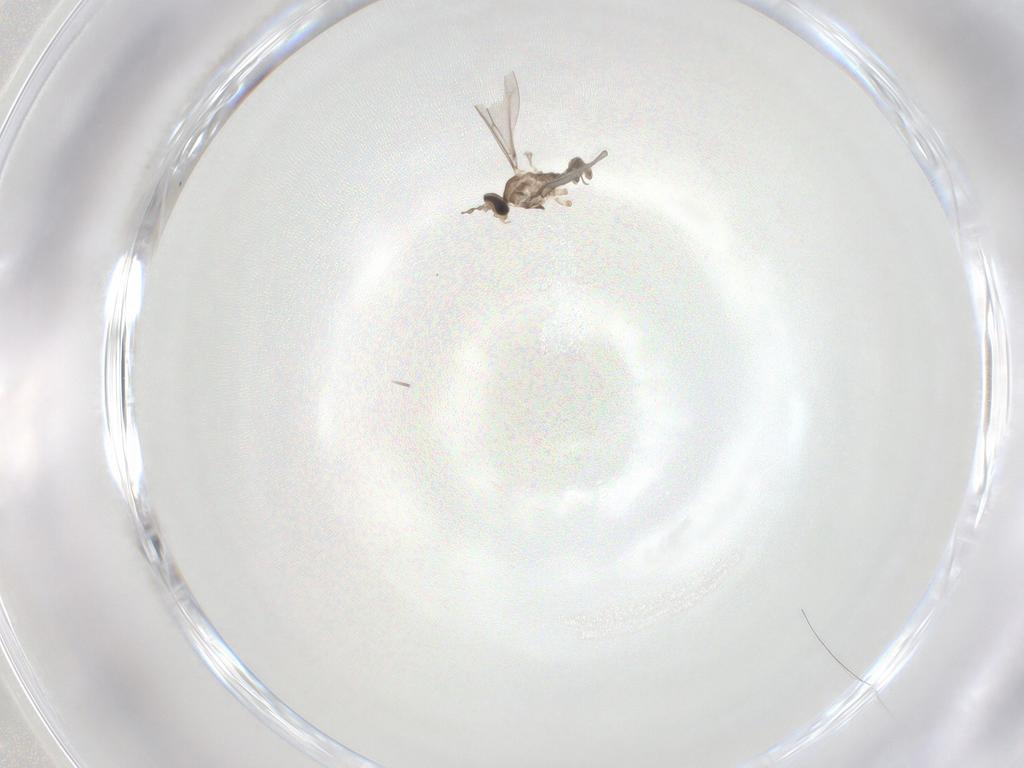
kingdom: Animalia
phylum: Arthropoda
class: Insecta
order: Diptera
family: Cecidomyiidae
